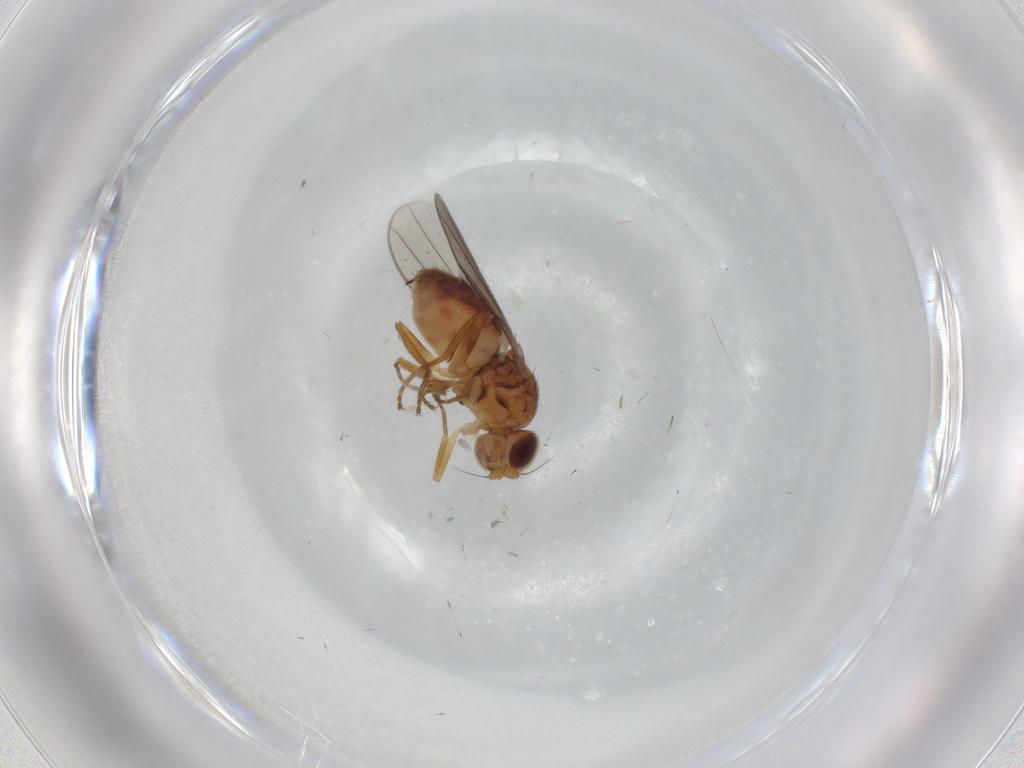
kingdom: Animalia
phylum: Arthropoda
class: Insecta
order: Diptera
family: Chloropidae
